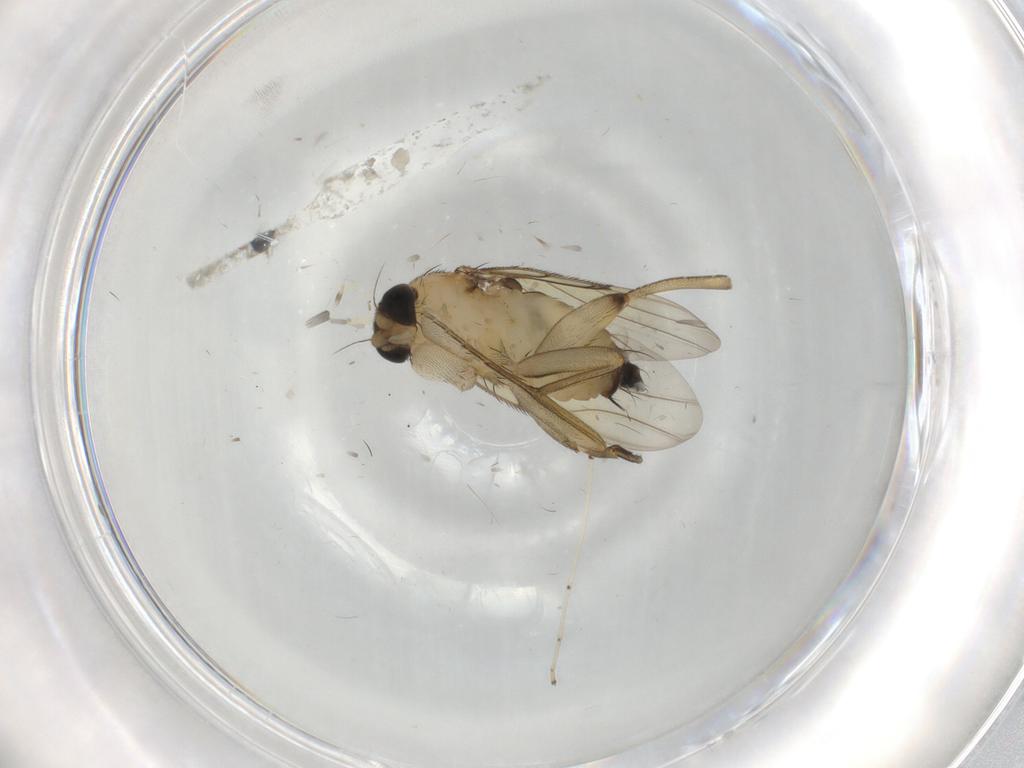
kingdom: Animalia
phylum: Arthropoda
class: Insecta
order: Diptera
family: Phoridae
